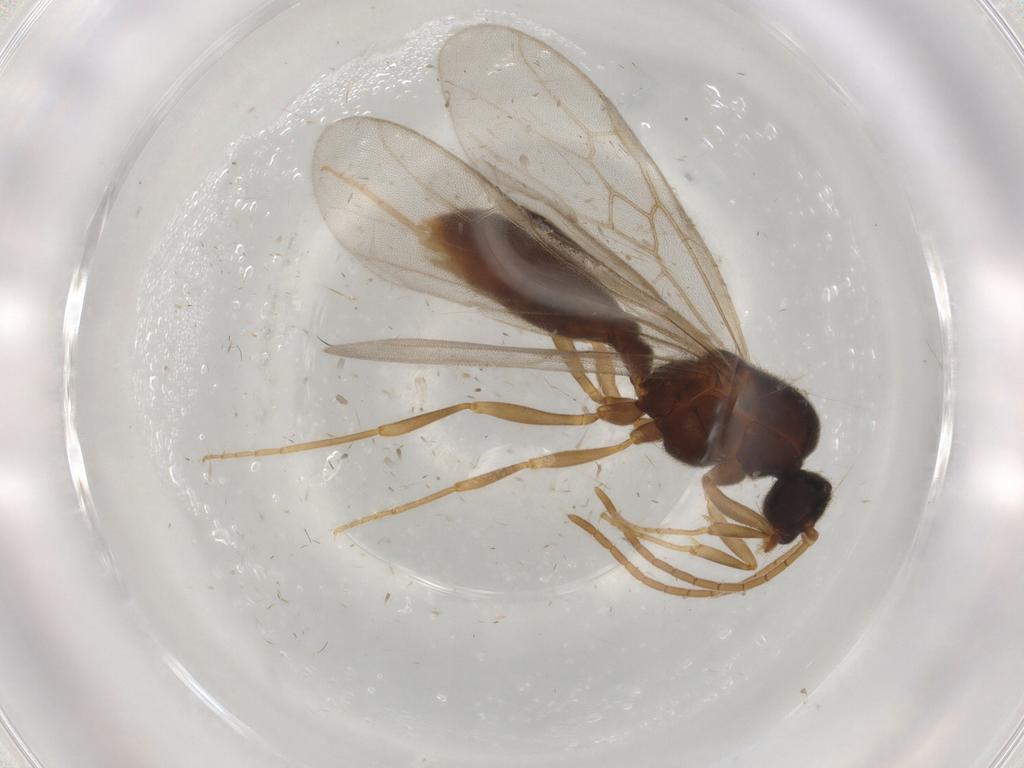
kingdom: Animalia
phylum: Arthropoda
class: Insecta
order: Hymenoptera
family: Formicidae
